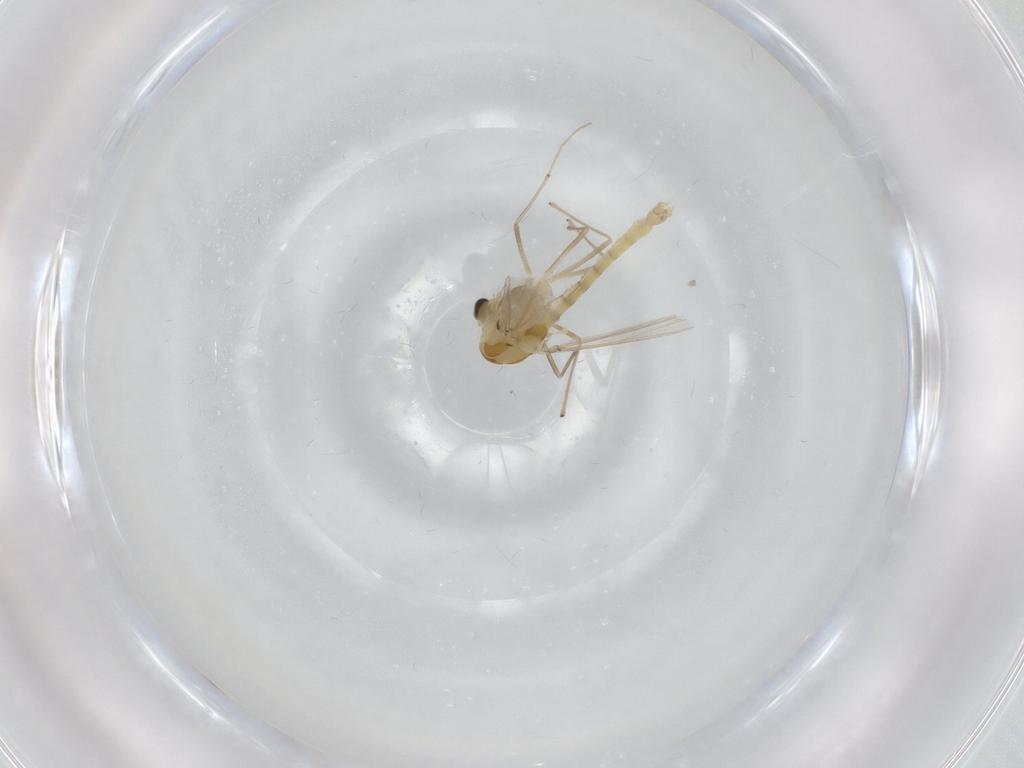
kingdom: Animalia
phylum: Arthropoda
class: Insecta
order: Diptera
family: Chironomidae
